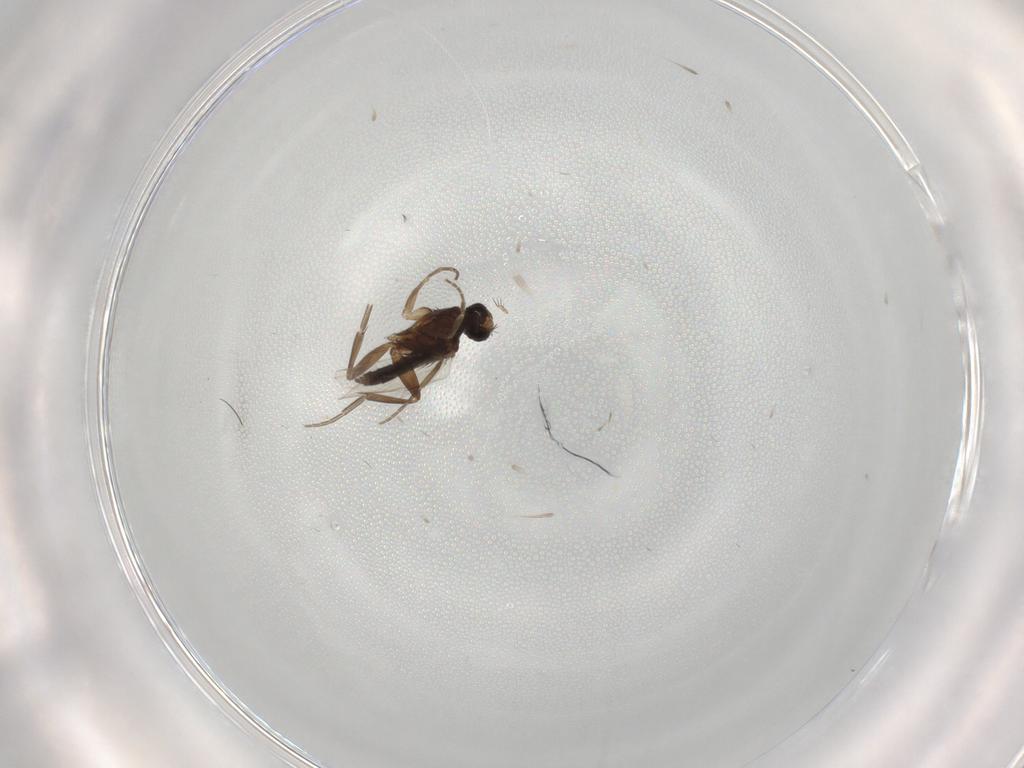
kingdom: Animalia
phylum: Arthropoda
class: Insecta
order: Diptera
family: Phoridae
